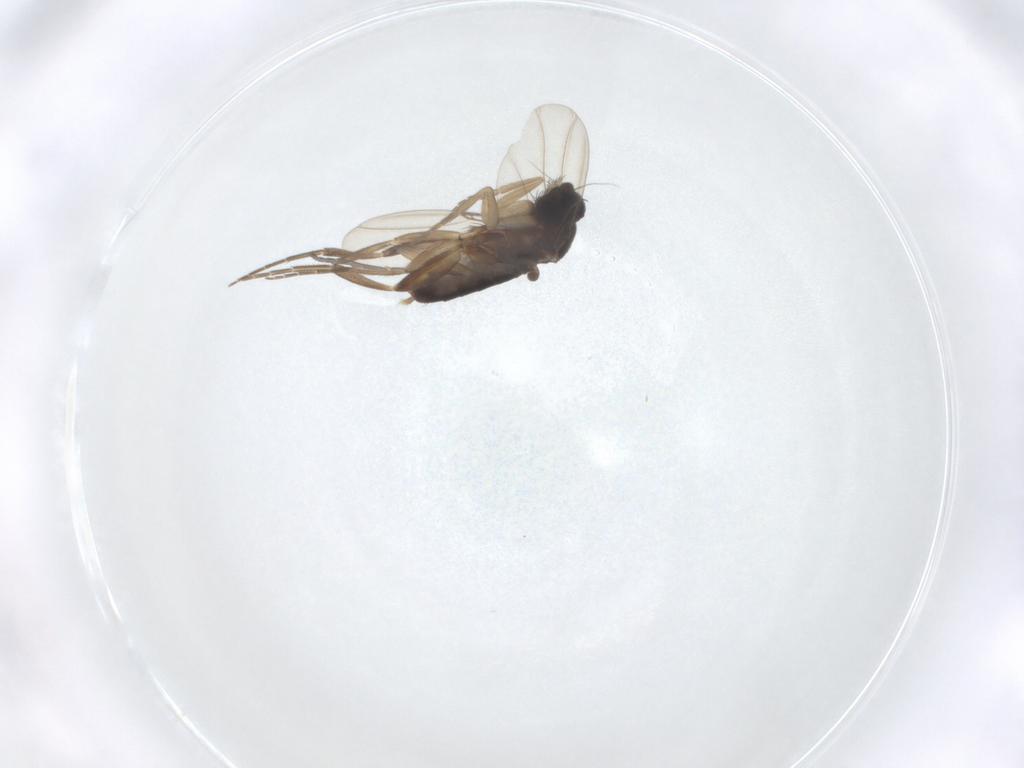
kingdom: Animalia
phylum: Arthropoda
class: Insecta
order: Diptera
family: Phoridae
